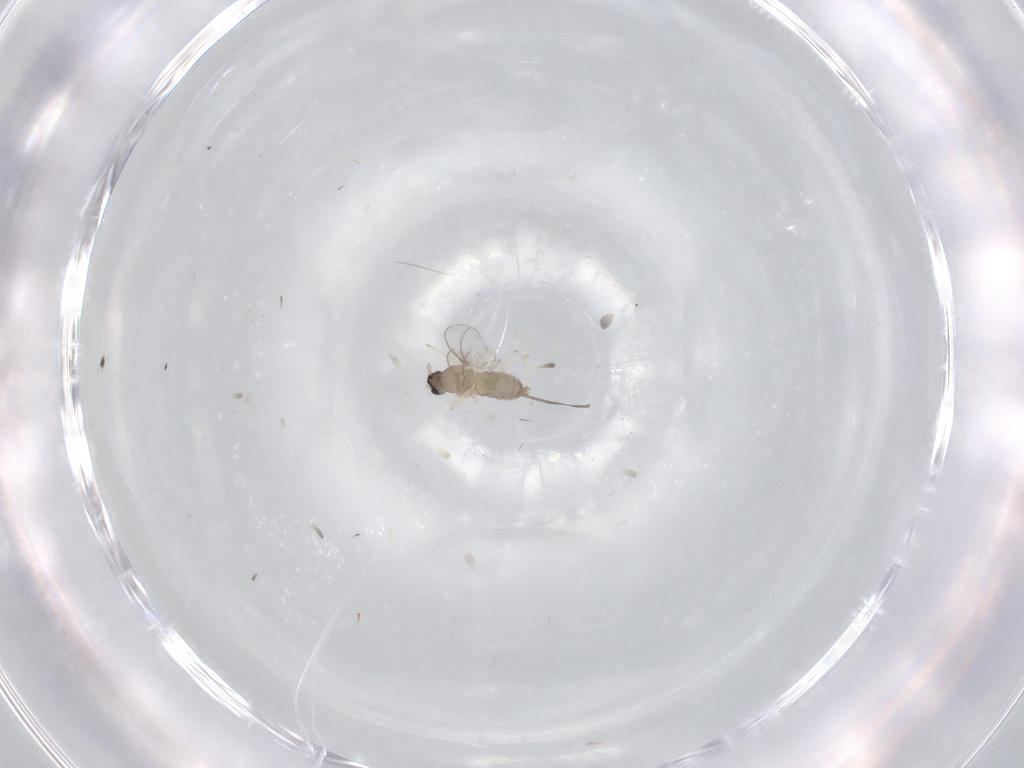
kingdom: Animalia
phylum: Arthropoda
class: Insecta
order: Diptera
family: Cecidomyiidae
